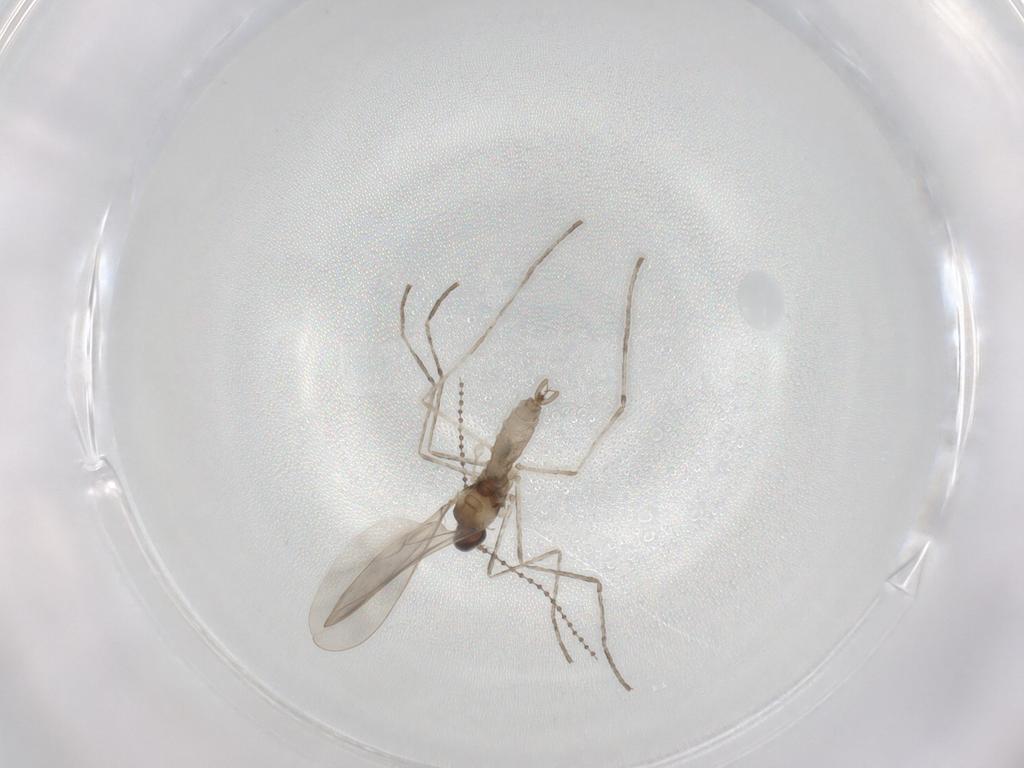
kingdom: Animalia
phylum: Arthropoda
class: Insecta
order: Diptera
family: Cecidomyiidae
